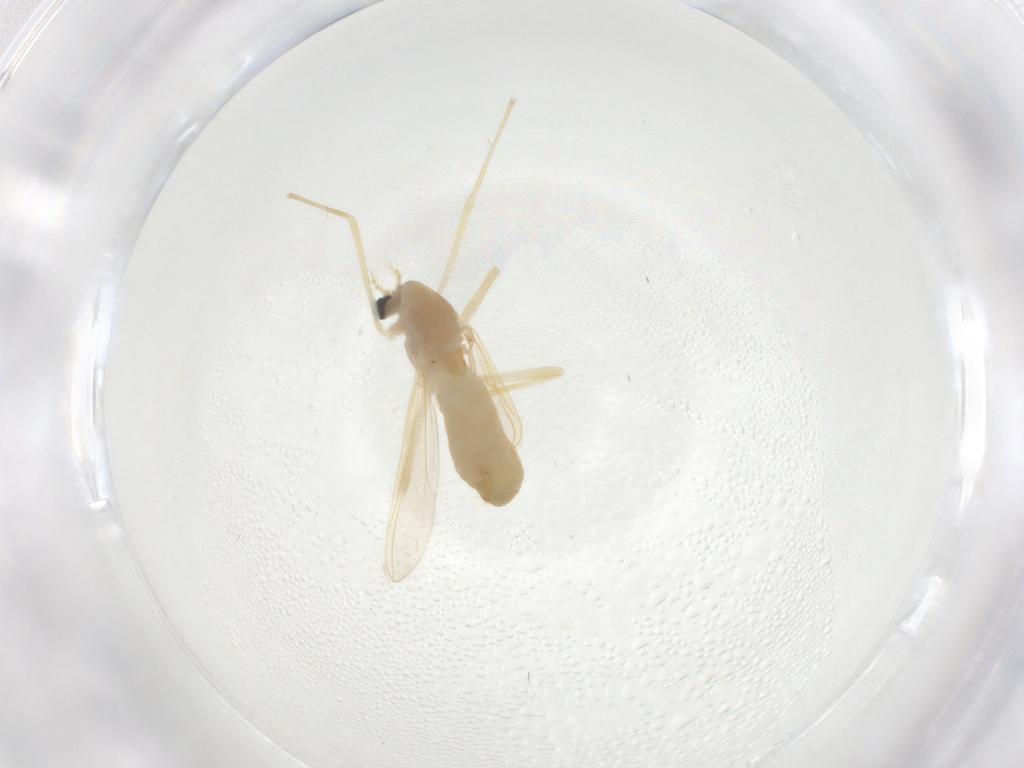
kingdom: Animalia
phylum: Arthropoda
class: Insecta
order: Diptera
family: Chironomidae
